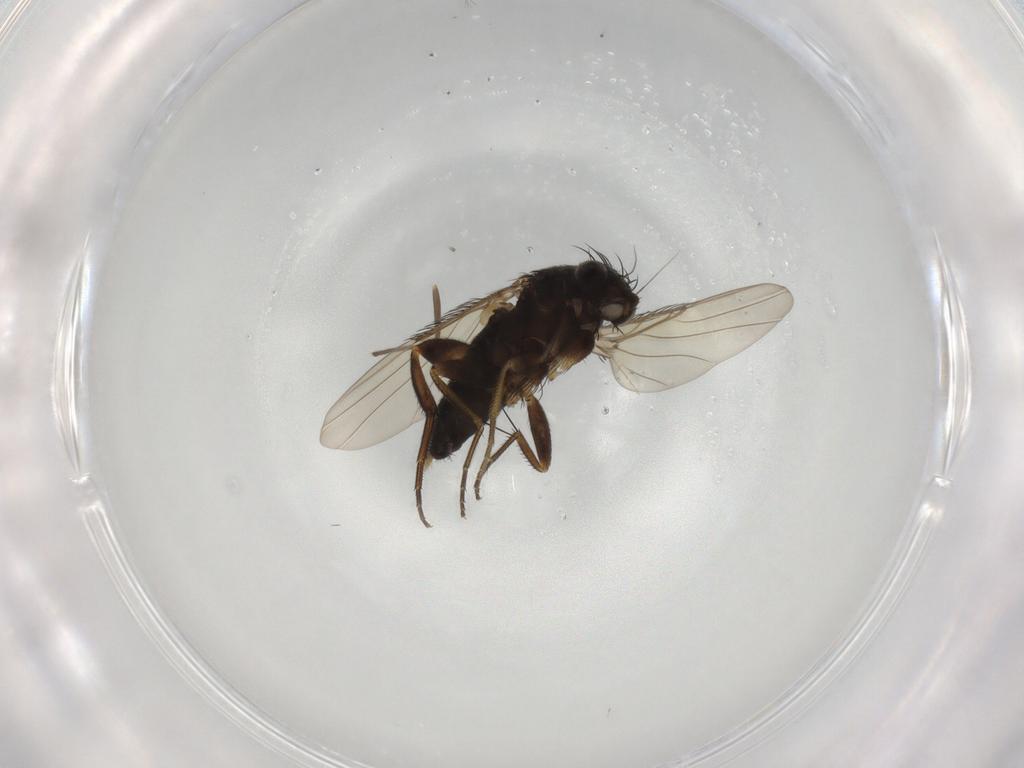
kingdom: Animalia
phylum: Arthropoda
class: Insecta
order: Diptera
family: Phoridae
